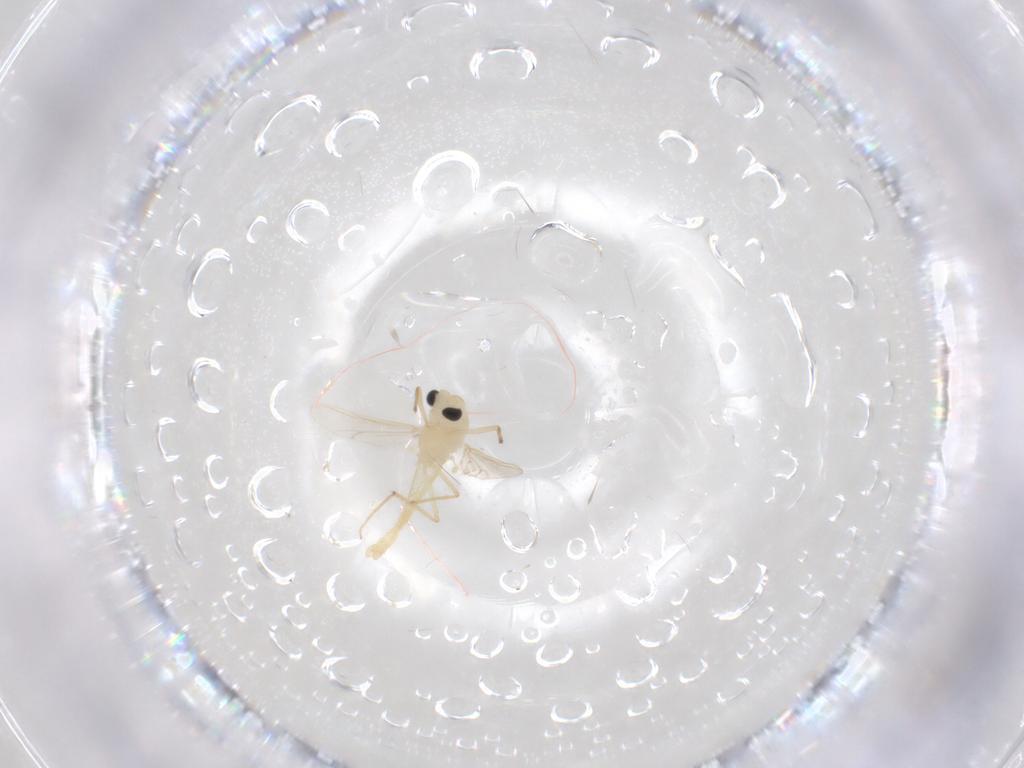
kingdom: Animalia
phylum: Arthropoda
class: Insecta
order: Diptera
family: Chironomidae
